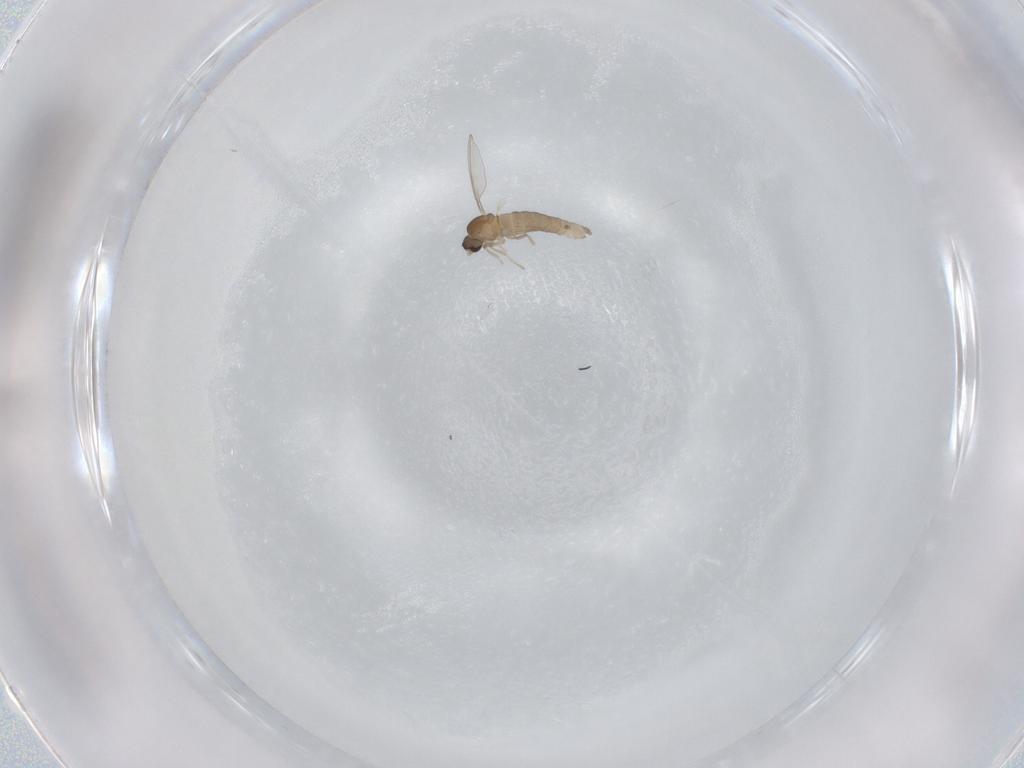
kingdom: Animalia
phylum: Arthropoda
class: Insecta
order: Diptera
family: Cecidomyiidae
